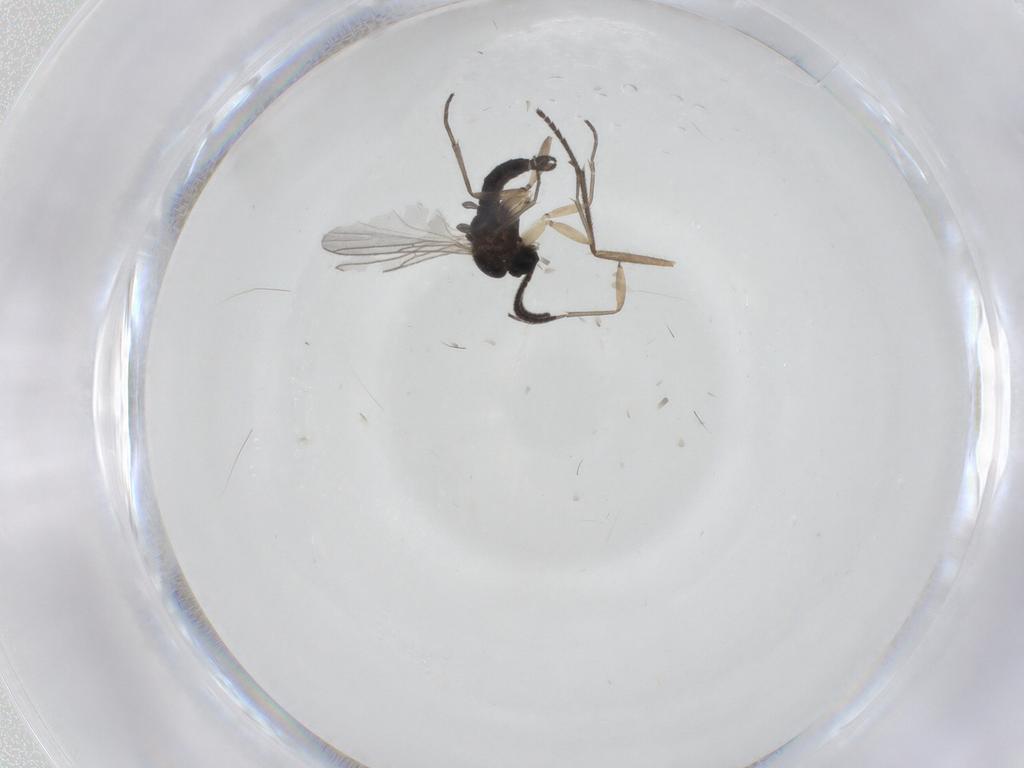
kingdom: Animalia
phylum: Arthropoda
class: Insecta
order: Diptera
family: Sciaridae
